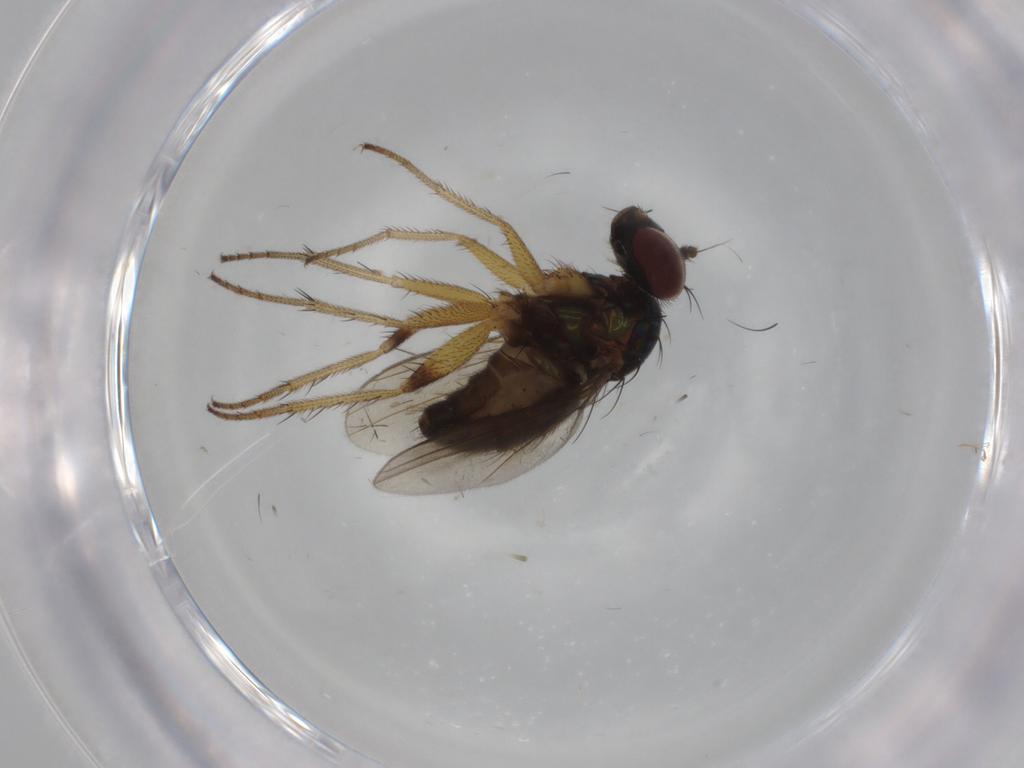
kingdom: Animalia
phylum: Arthropoda
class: Insecta
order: Diptera
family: Dolichopodidae
